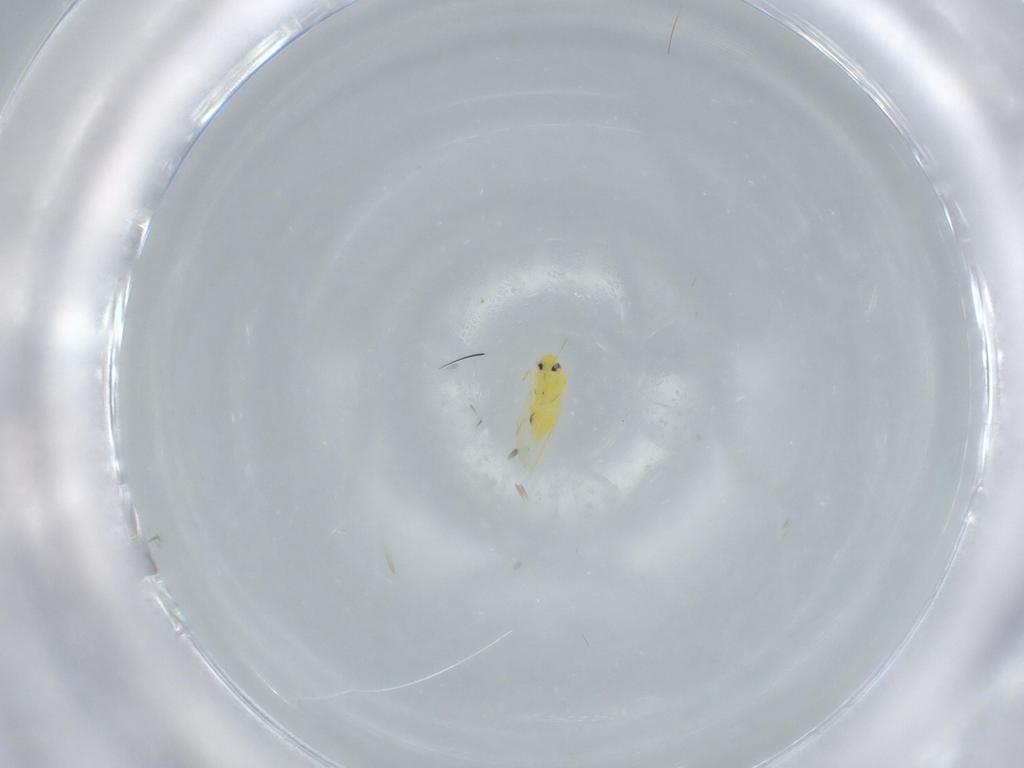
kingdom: Animalia
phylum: Arthropoda
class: Insecta
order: Hemiptera
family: Aleyrodidae
